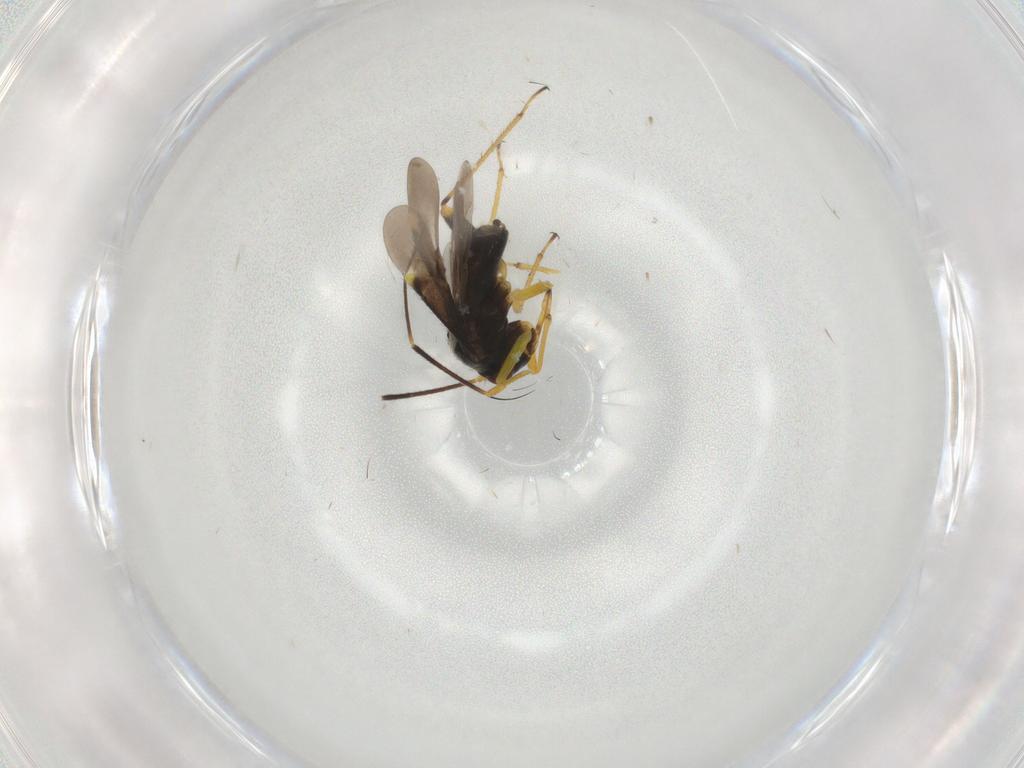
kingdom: Animalia
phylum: Arthropoda
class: Insecta
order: Hemiptera
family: Miridae
